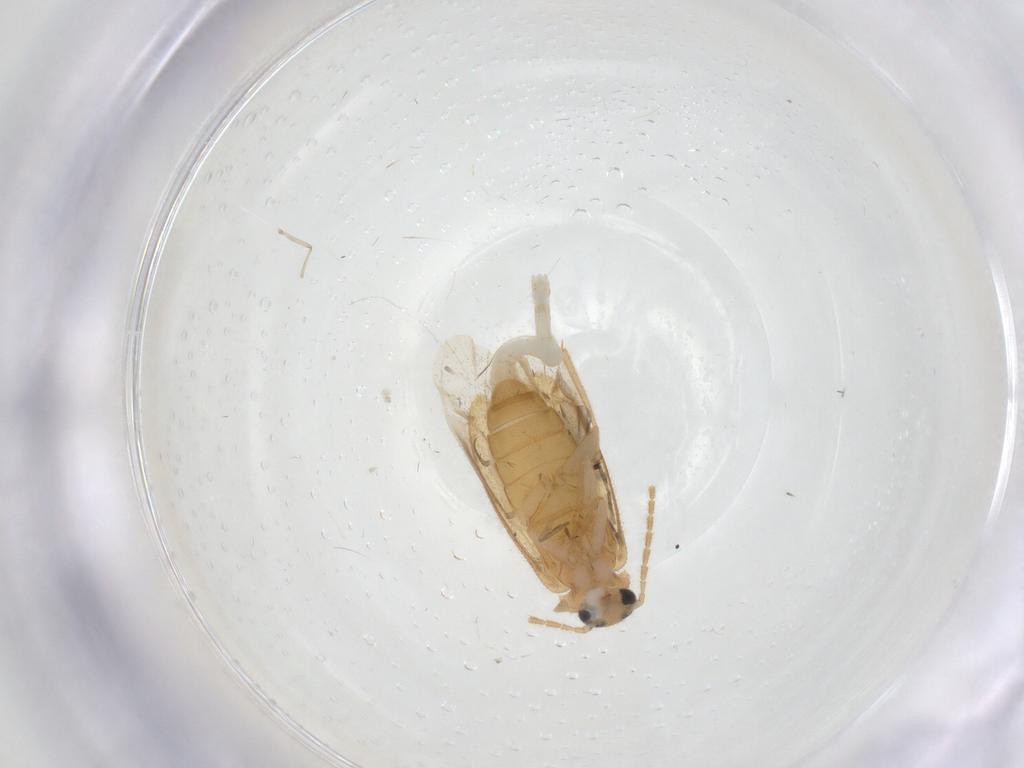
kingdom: Animalia
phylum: Arthropoda
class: Insecta
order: Coleoptera
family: Scraptiidae
